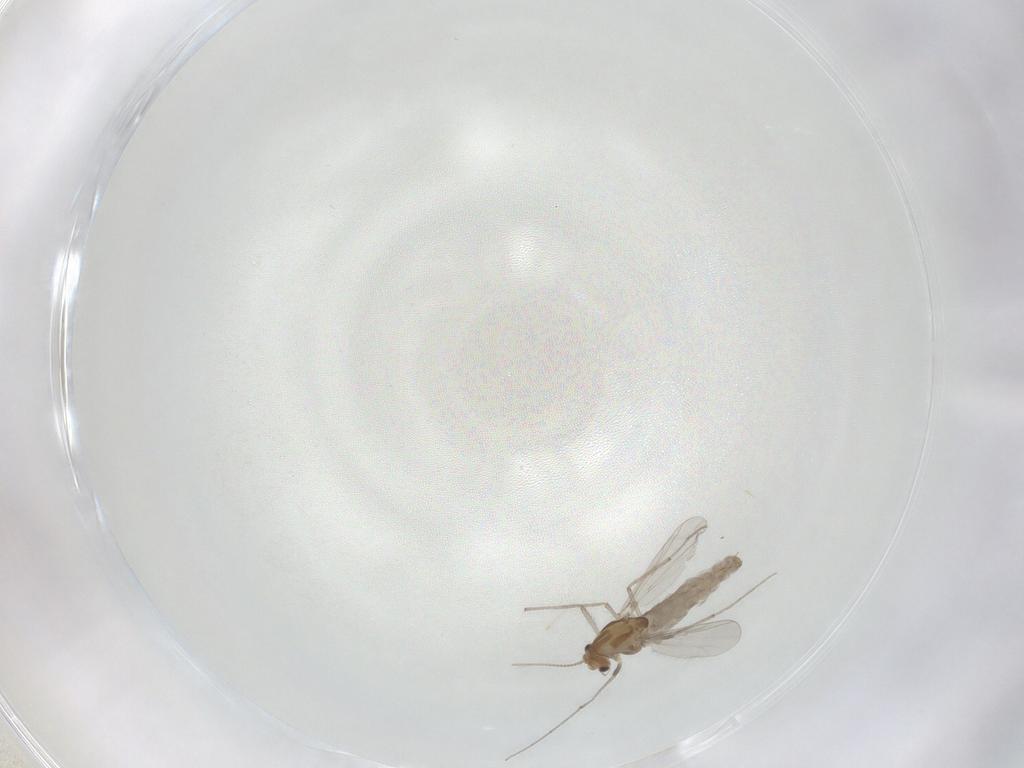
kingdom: Animalia
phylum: Arthropoda
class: Insecta
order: Diptera
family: Chironomidae
